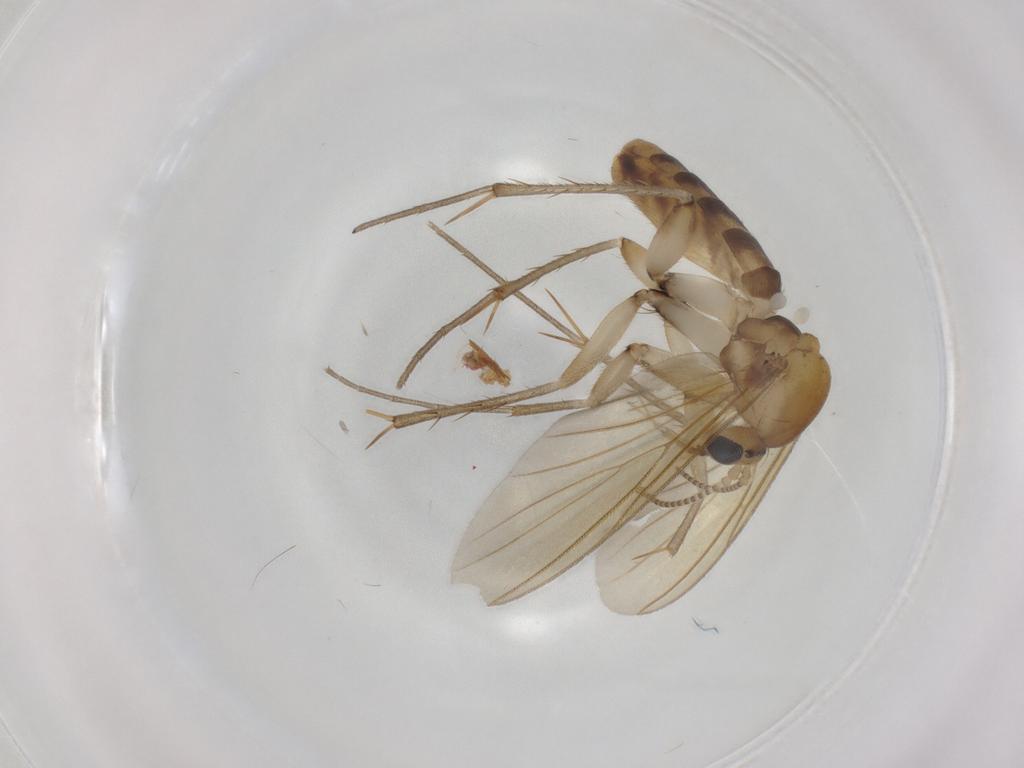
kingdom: Animalia
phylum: Arthropoda
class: Insecta
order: Diptera
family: Mycetophilidae
